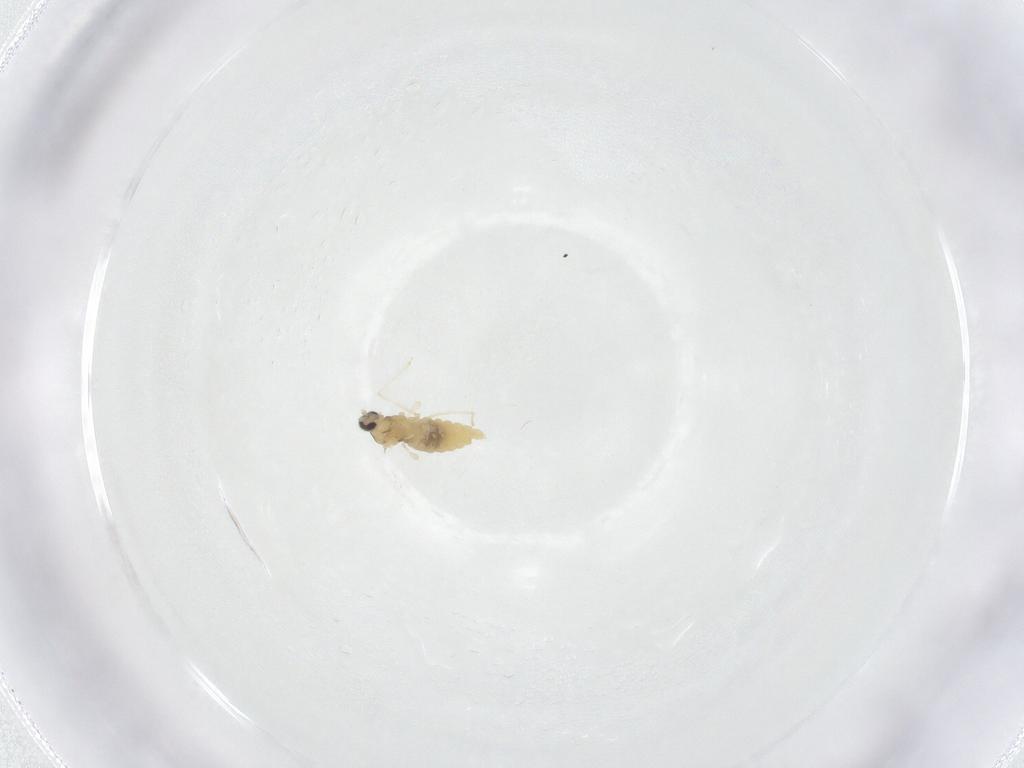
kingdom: Animalia
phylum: Arthropoda
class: Insecta
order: Diptera
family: Cecidomyiidae
